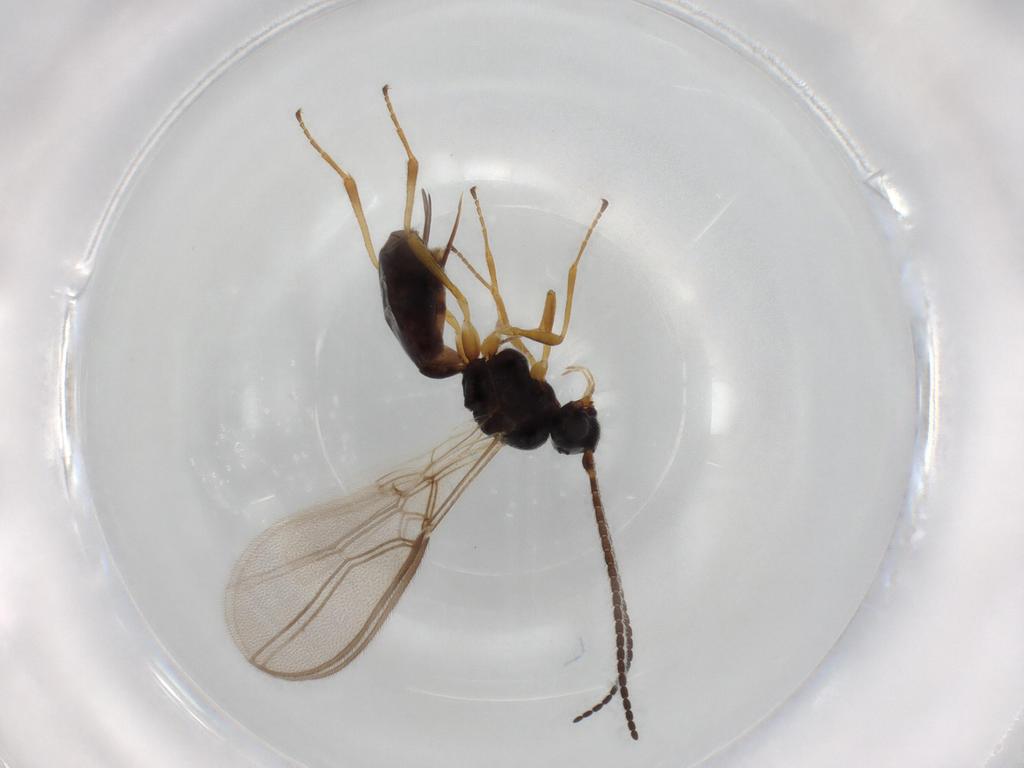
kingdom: Animalia
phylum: Arthropoda
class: Insecta
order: Hymenoptera
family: Braconidae
